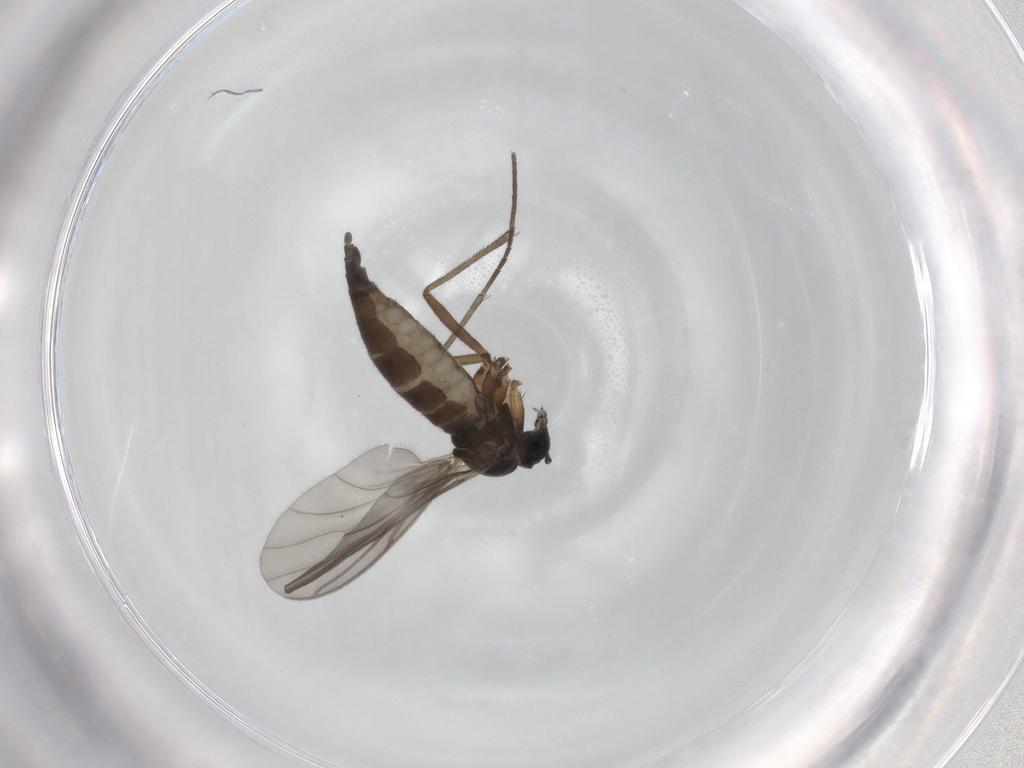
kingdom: Animalia
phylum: Arthropoda
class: Insecta
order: Diptera
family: Sciaridae
